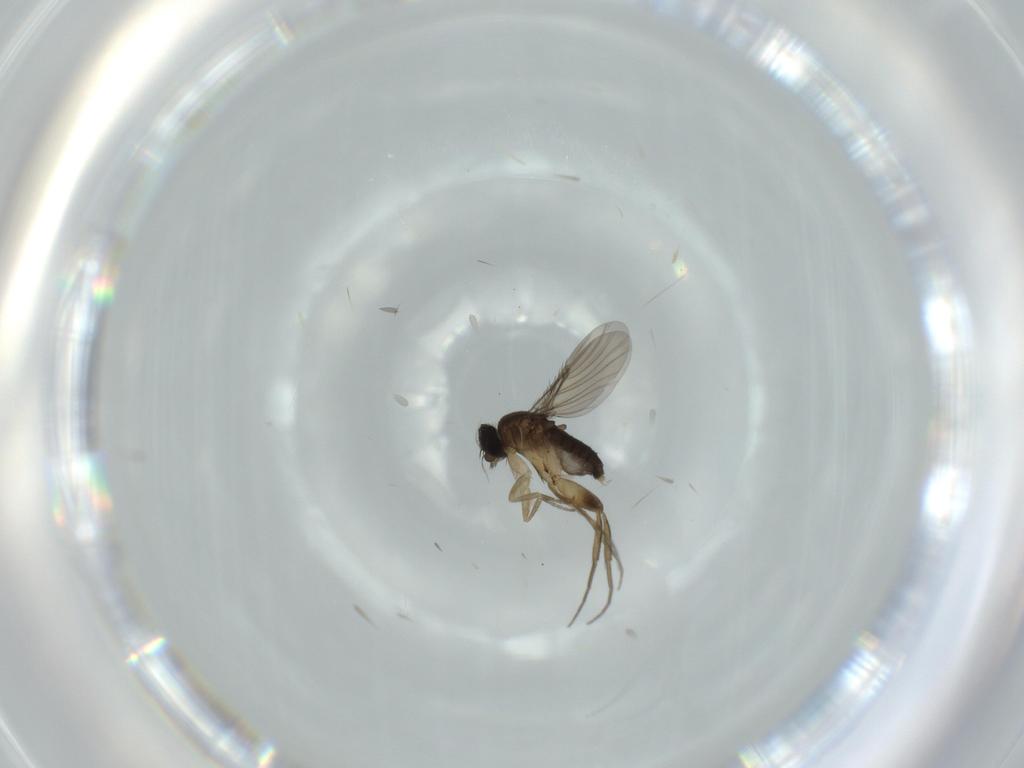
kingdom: Animalia
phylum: Arthropoda
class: Insecta
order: Diptera
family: Phoridae
